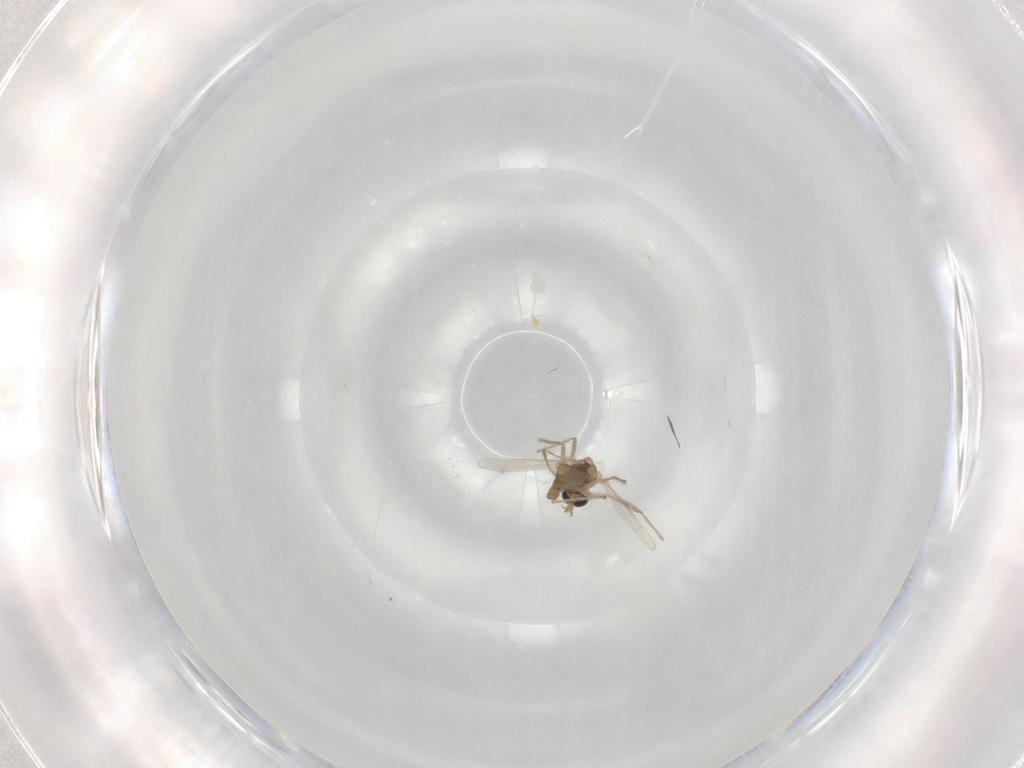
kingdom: Animalia
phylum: Arthropoda
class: Insecta
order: Diptera
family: Chironomidae
